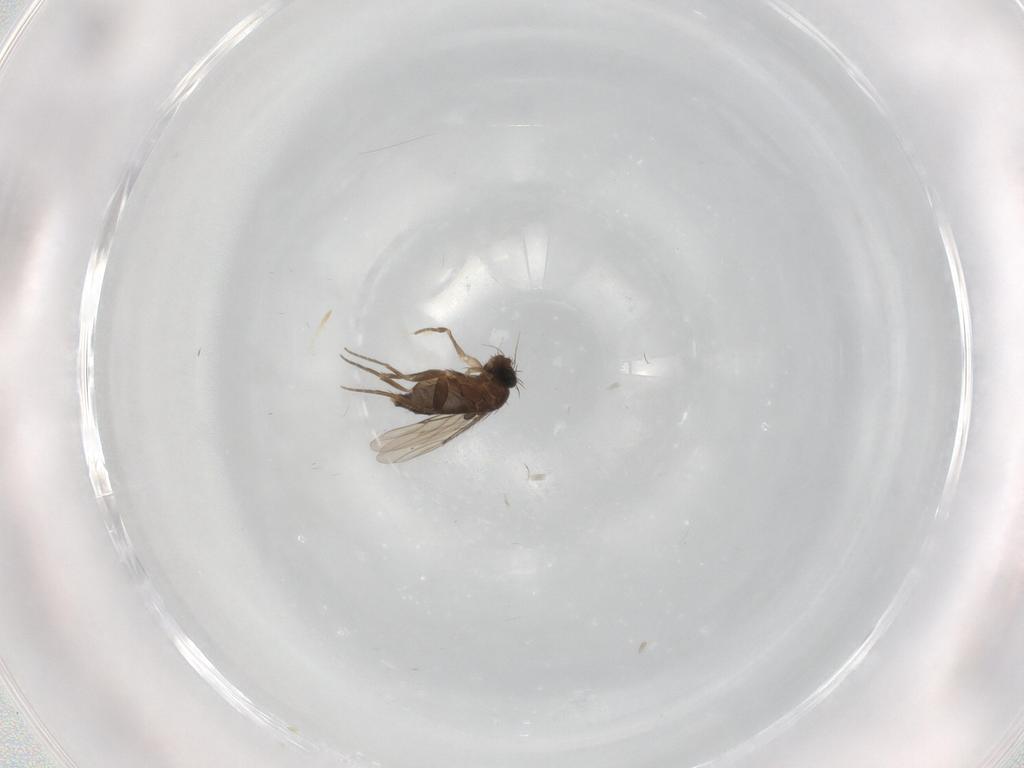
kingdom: Animalia
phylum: Arthropoda
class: Insecta
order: Diptera
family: Phoridae
